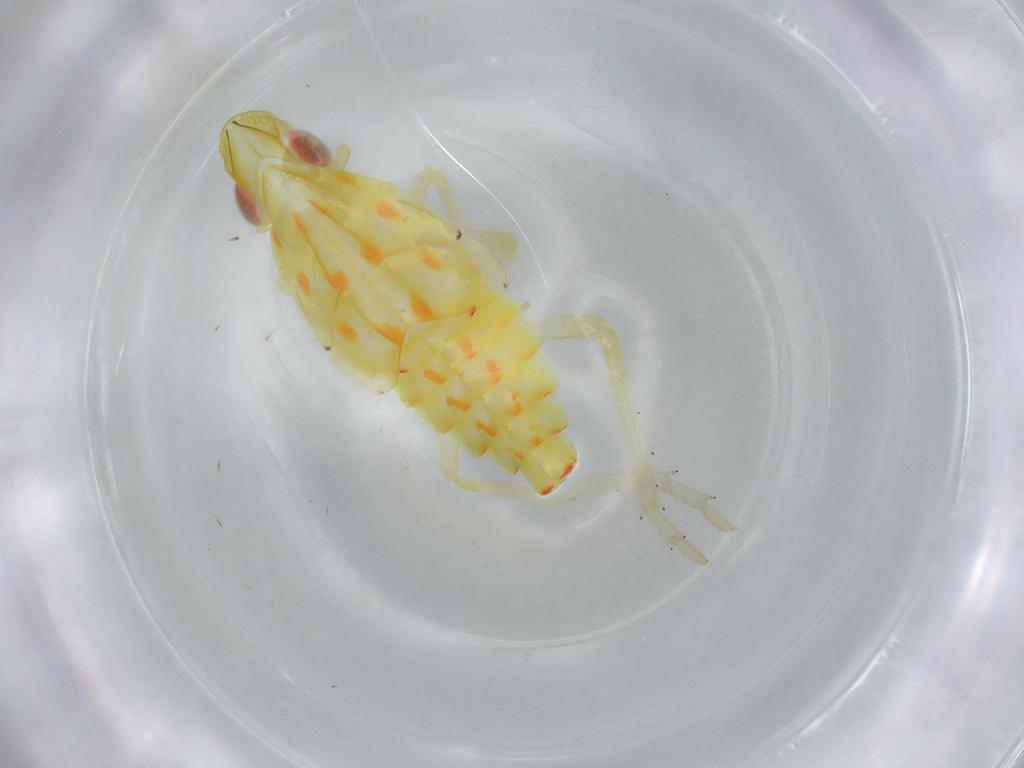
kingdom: Animalia
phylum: Arthropoda
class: Insecta
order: Hemiptera
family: Tropiduchidae
